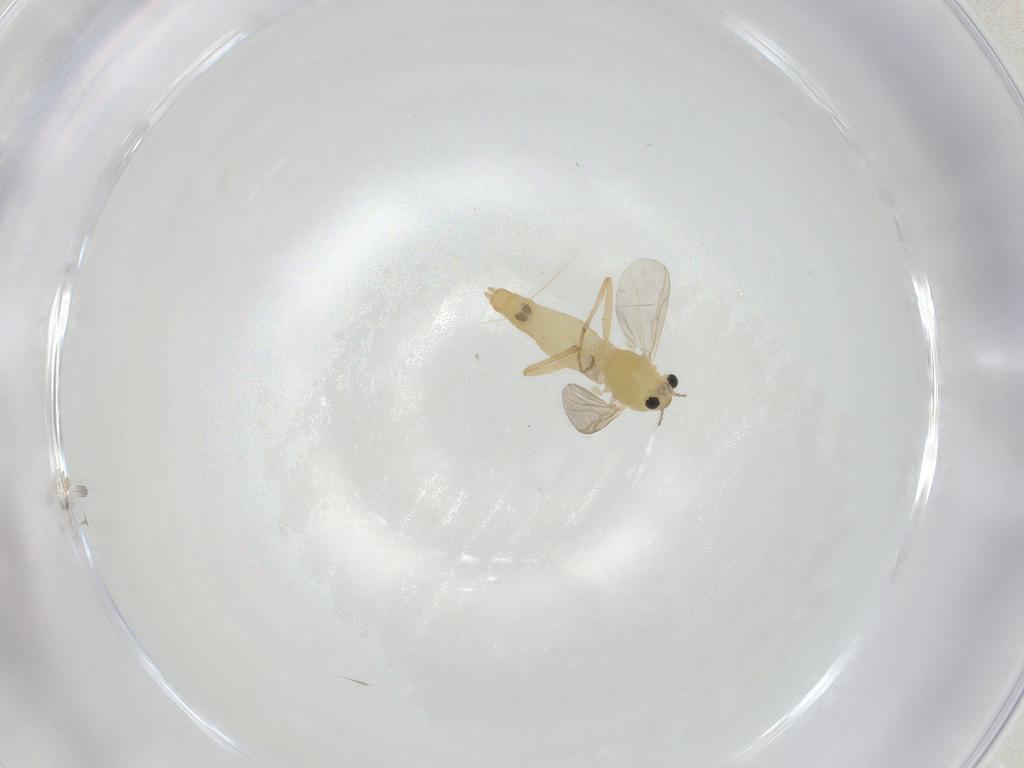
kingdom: Animalia
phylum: Arthropoda
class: Insecta
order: Diptera
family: Chironomidae
